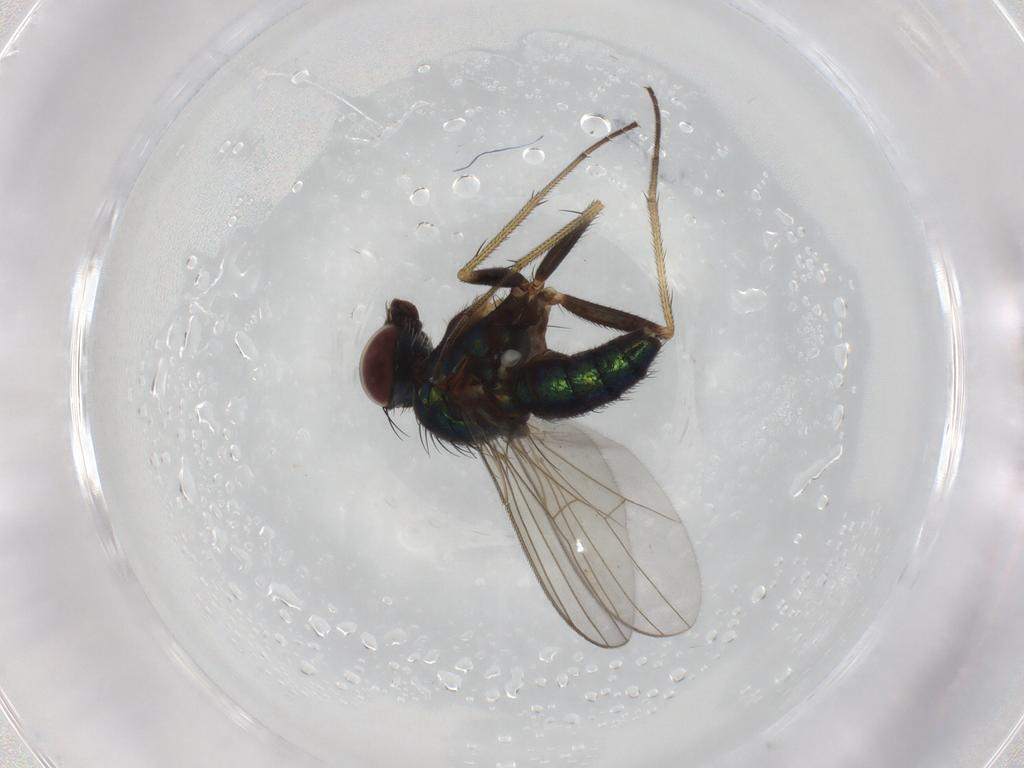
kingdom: Animalia
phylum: Arthropoda
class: Insecta
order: Diptera
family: Dolichopodidae
